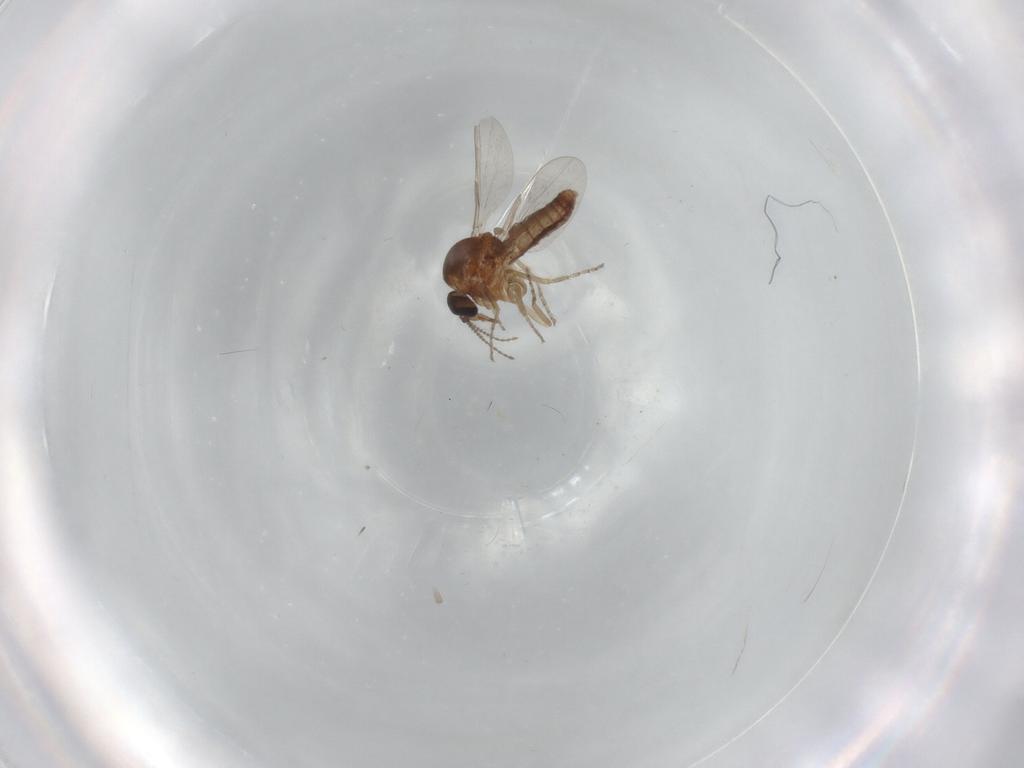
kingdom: Animalia
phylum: Arthropoda
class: Insecta
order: Diptera
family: Ceratopogonidae
